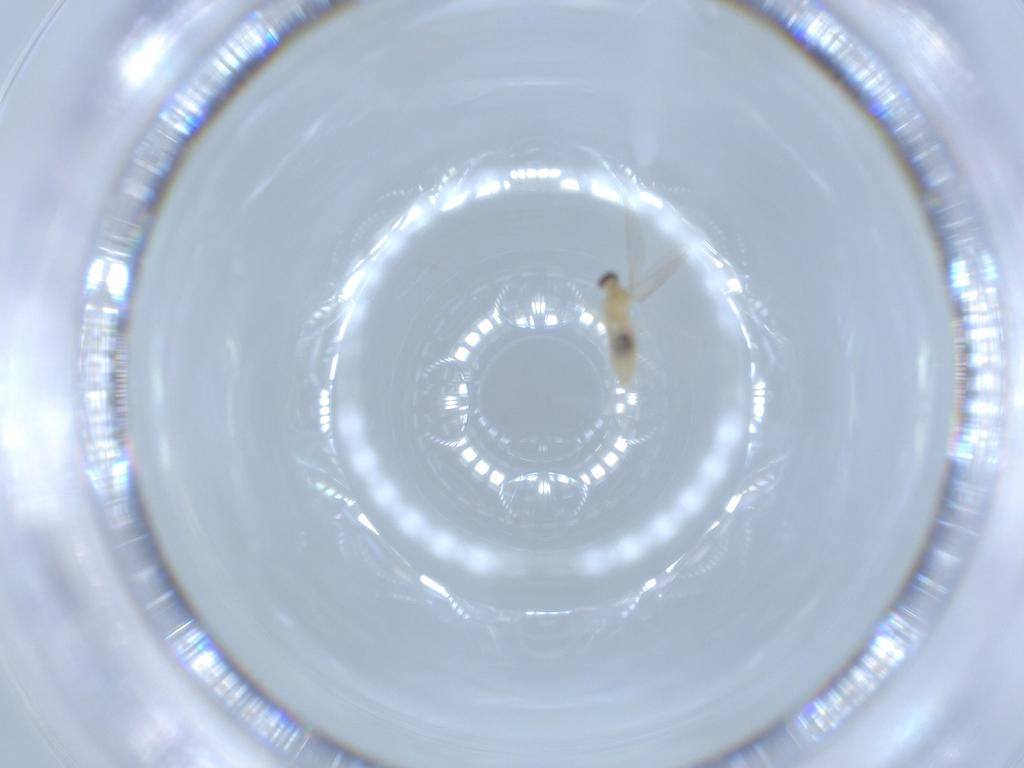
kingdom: Animalia
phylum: Arthropoda
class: Insecta
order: Diptera
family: Cecidomyiidae
